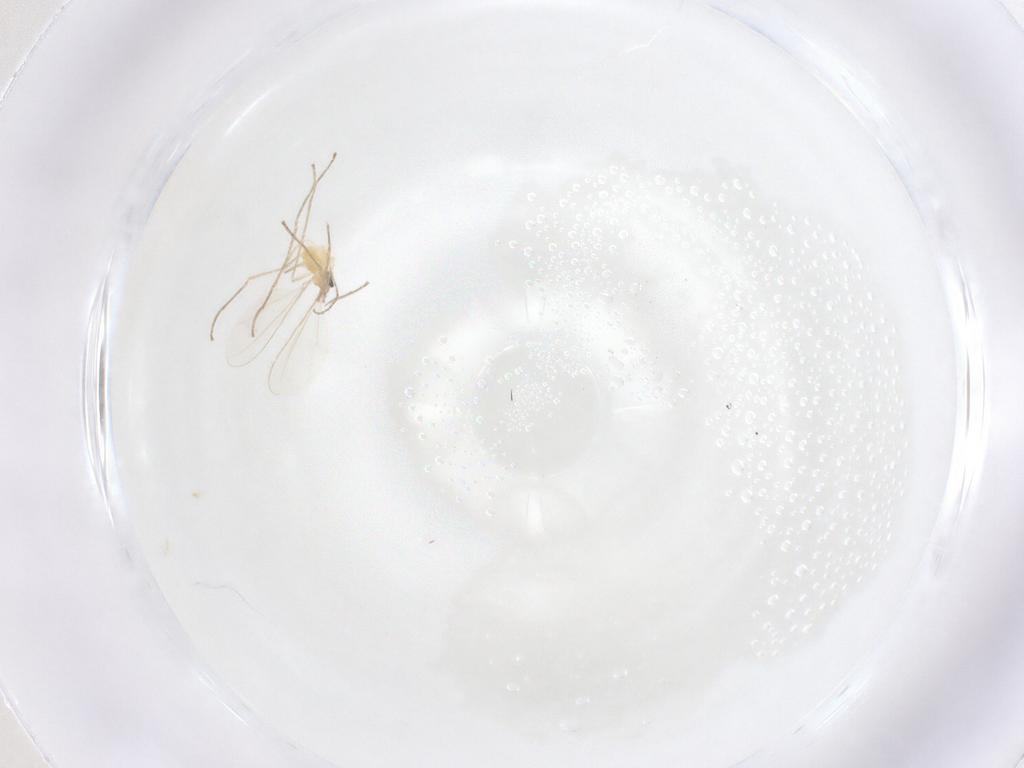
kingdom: Animalia
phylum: Arthropoda
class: Insecta
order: Diptera
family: Cecidomyiidae
